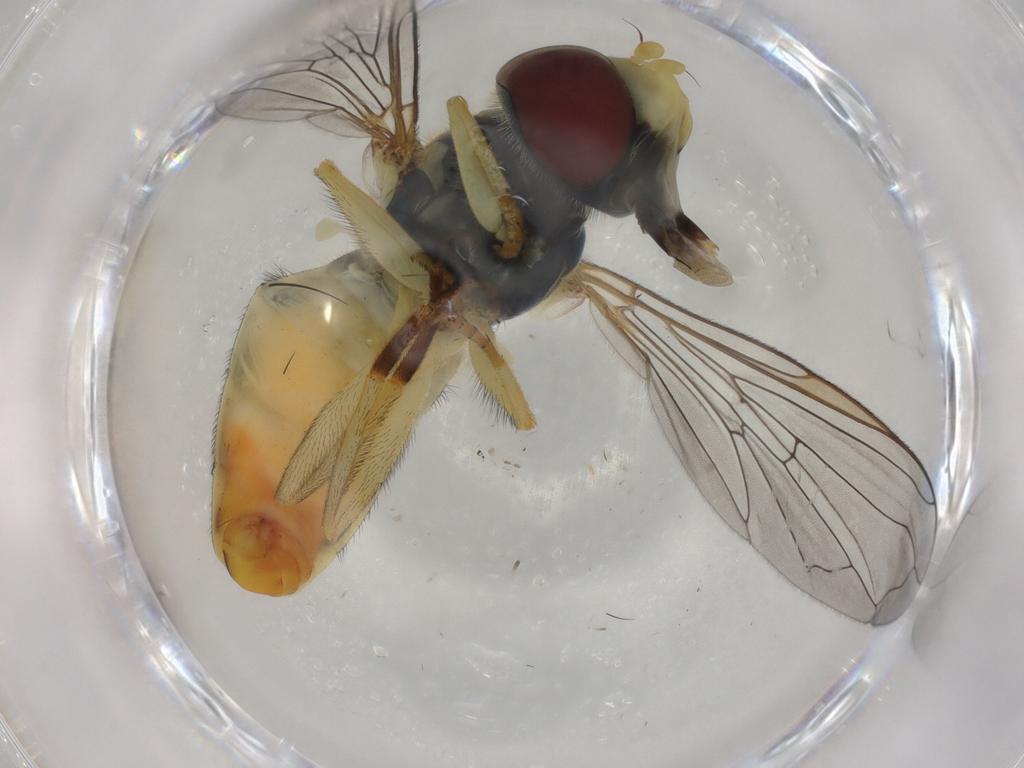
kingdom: Animalia
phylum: Arthropoda
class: Insecta
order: Diptera
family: Syrphidae
